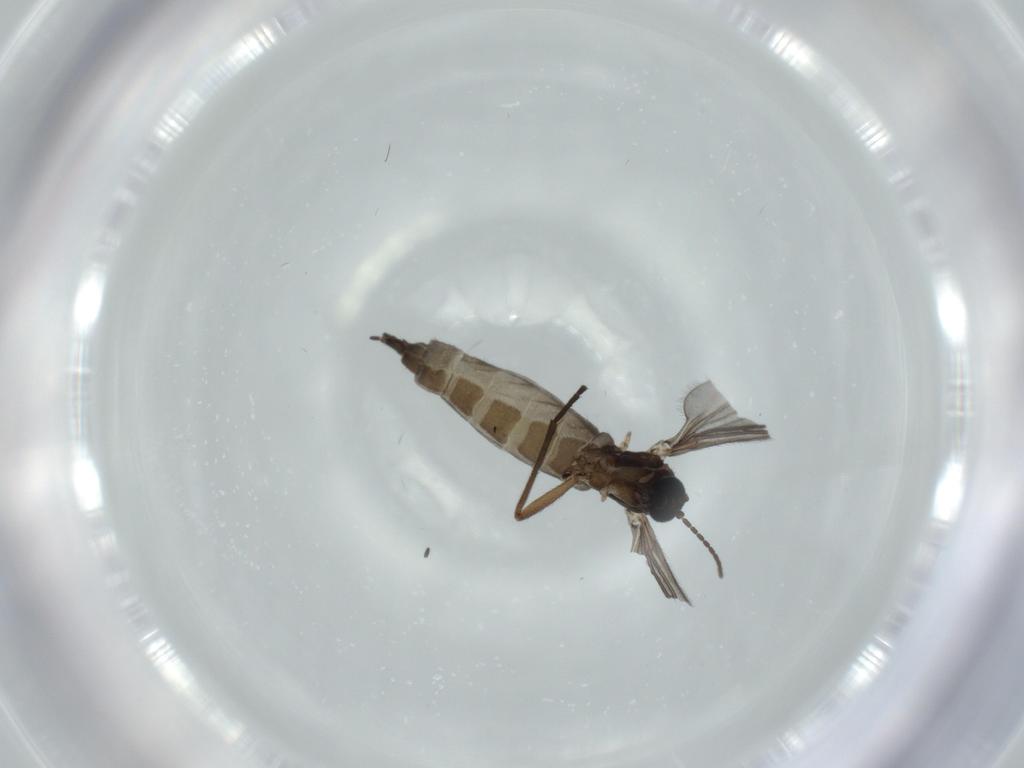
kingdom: Animalia
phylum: Arthropoda
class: Insecta
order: Diptera
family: Sciaridae
